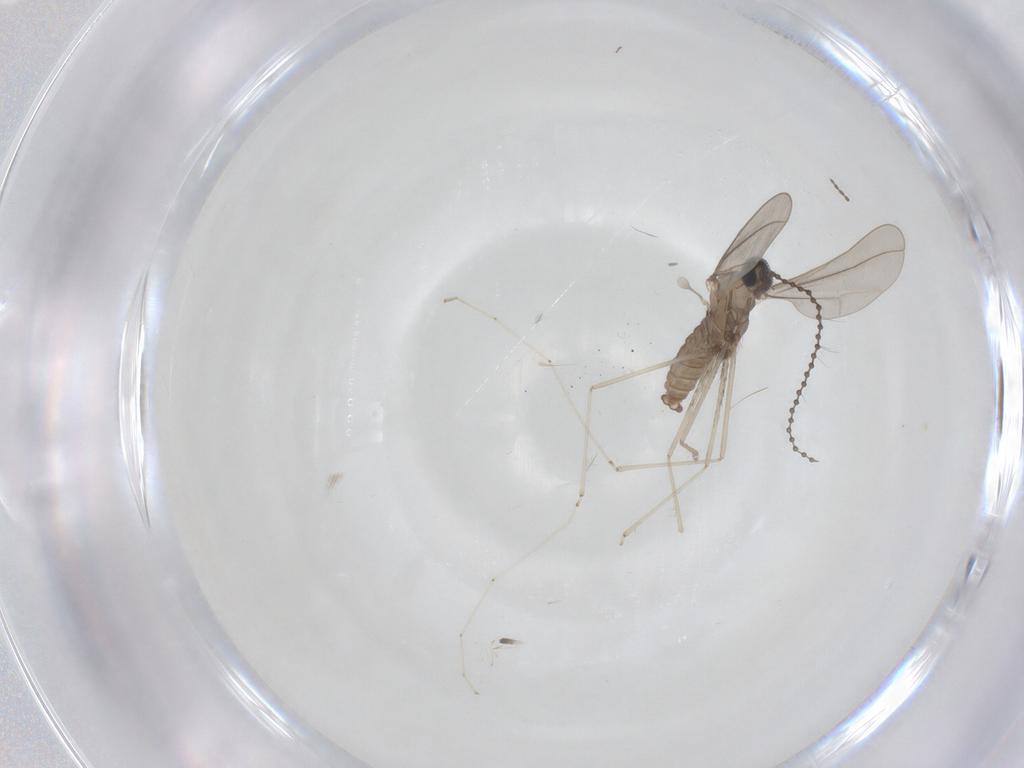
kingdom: Animalia
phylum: Arthropoda
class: Insecta
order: Diptera
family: Cecidomyiidae
